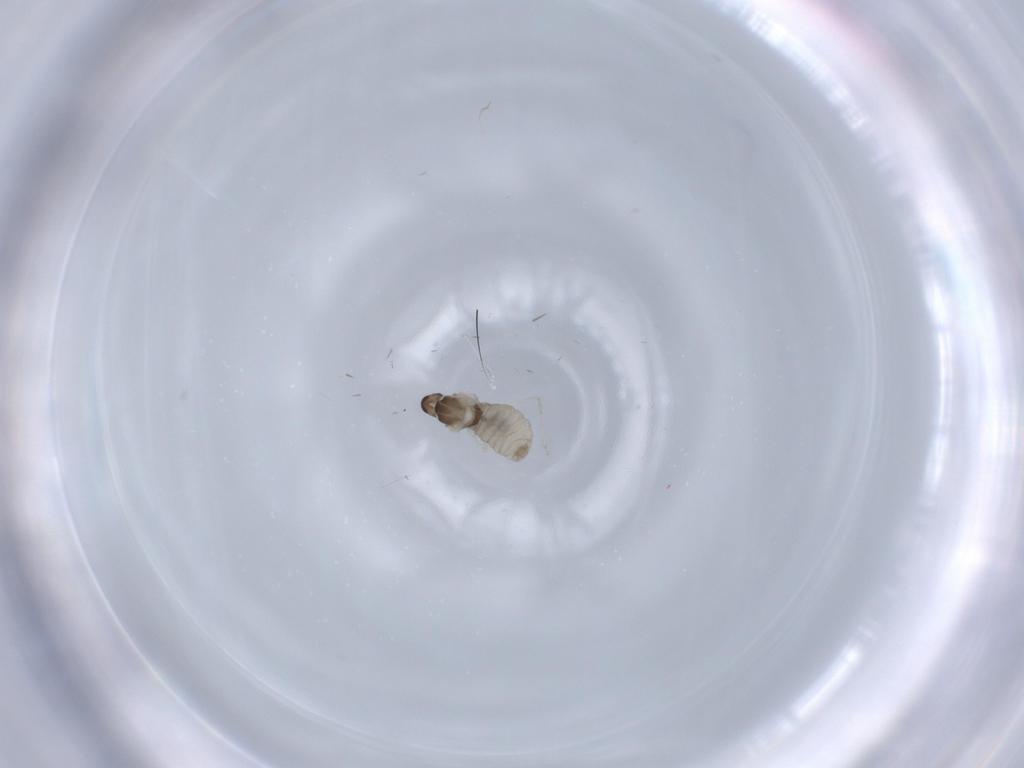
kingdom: Animalia
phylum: Arthropoda
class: Insecta
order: Diptera
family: Cecidomyiidae
